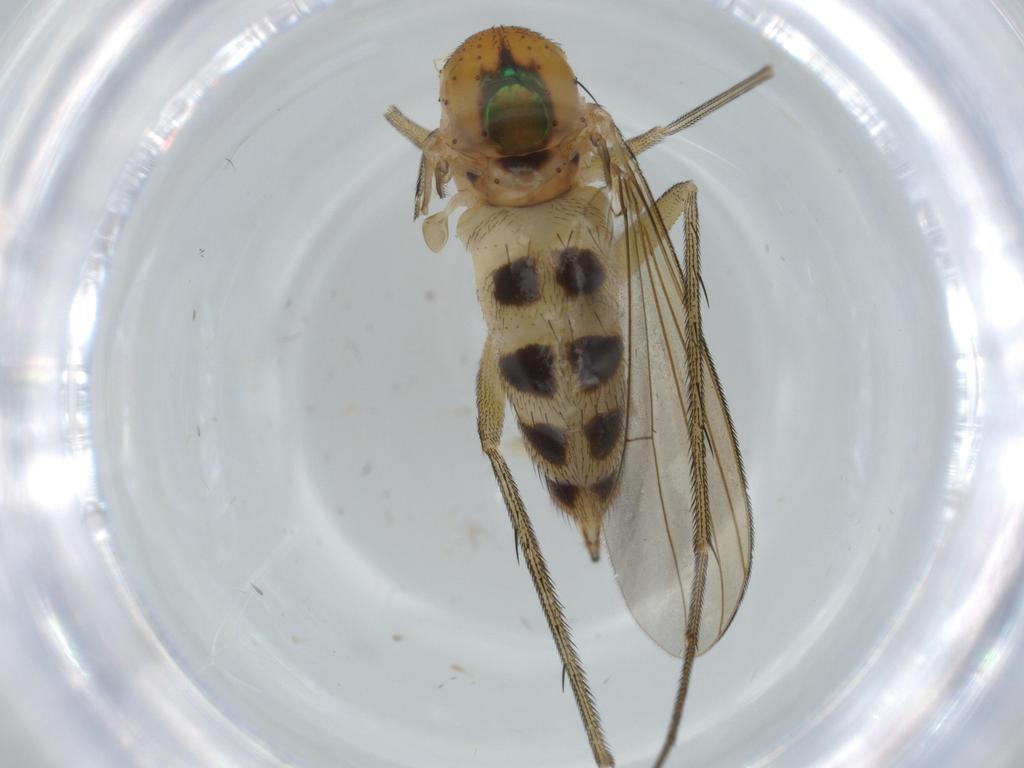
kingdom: Animalia
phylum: Arthropoda
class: Insecta
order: Diptera
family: Dolichopodidae
